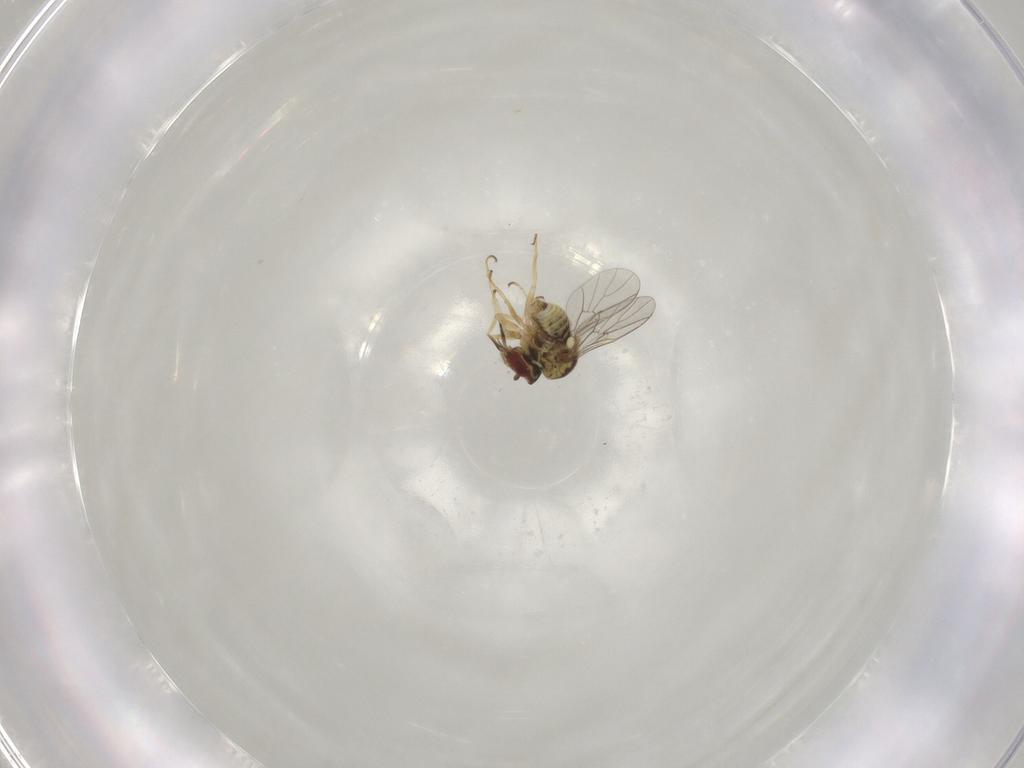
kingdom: Animalia
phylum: Arthropoda
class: Insecta
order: Diptera
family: Mythicomyiidae
